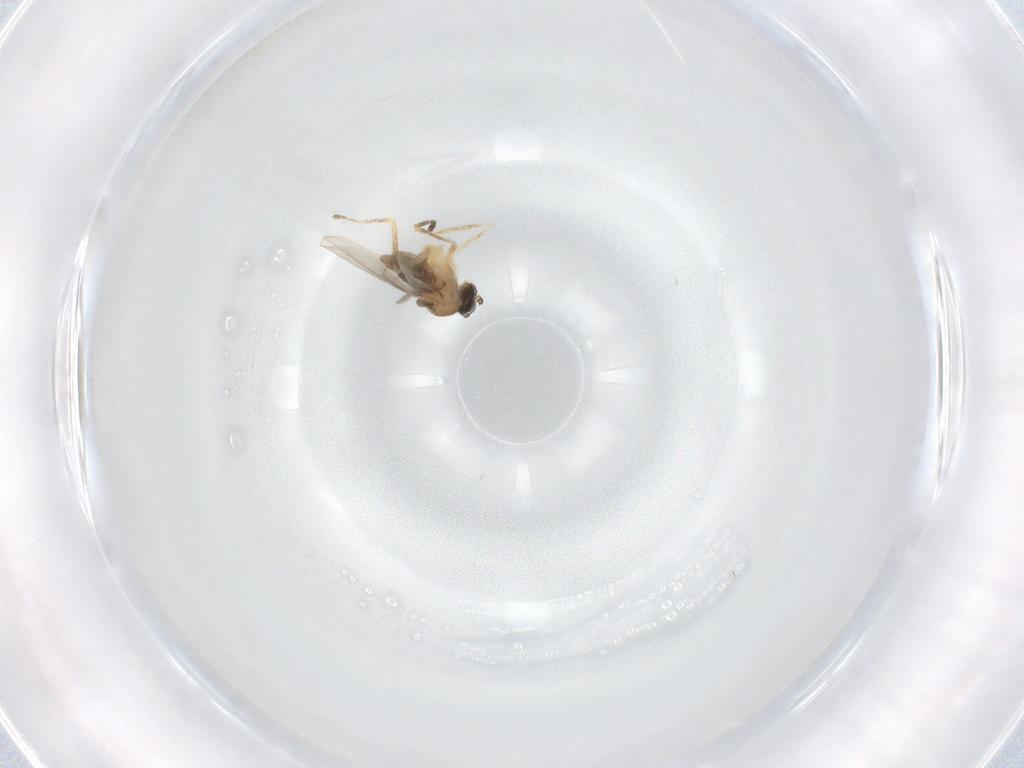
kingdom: Animalia
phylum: Arthropoda
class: Insecta
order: Diptera
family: Cecidomyiidae
